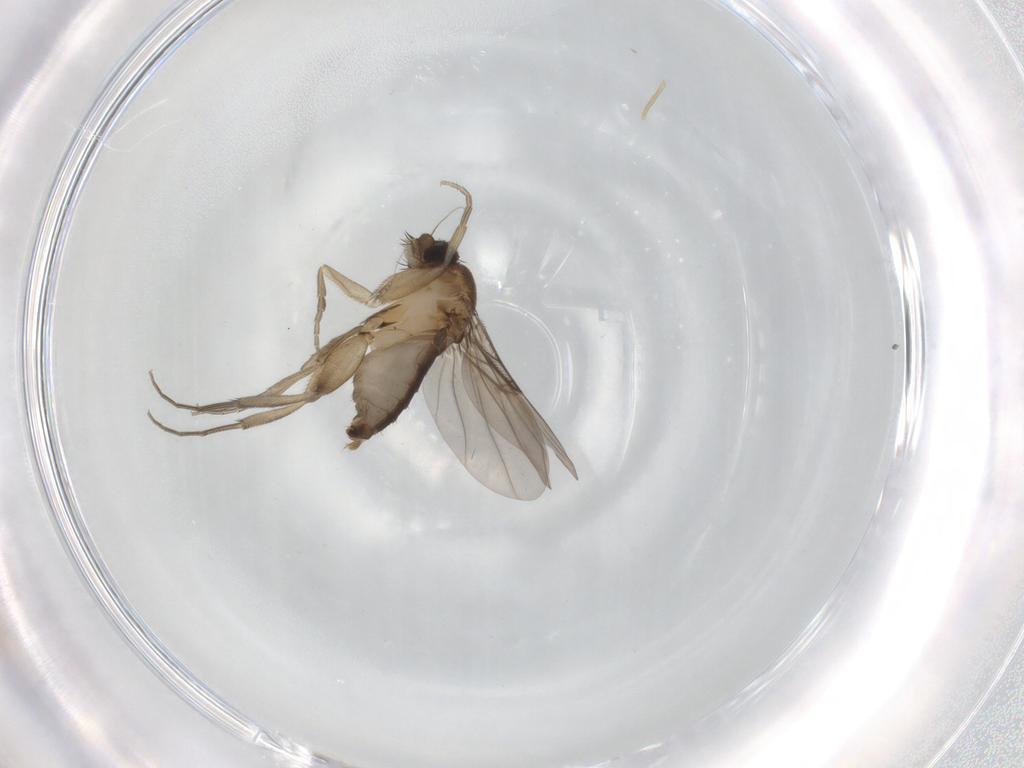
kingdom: Animalia
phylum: Arthropoda
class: Insecta
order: Diptera
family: Phoridae
